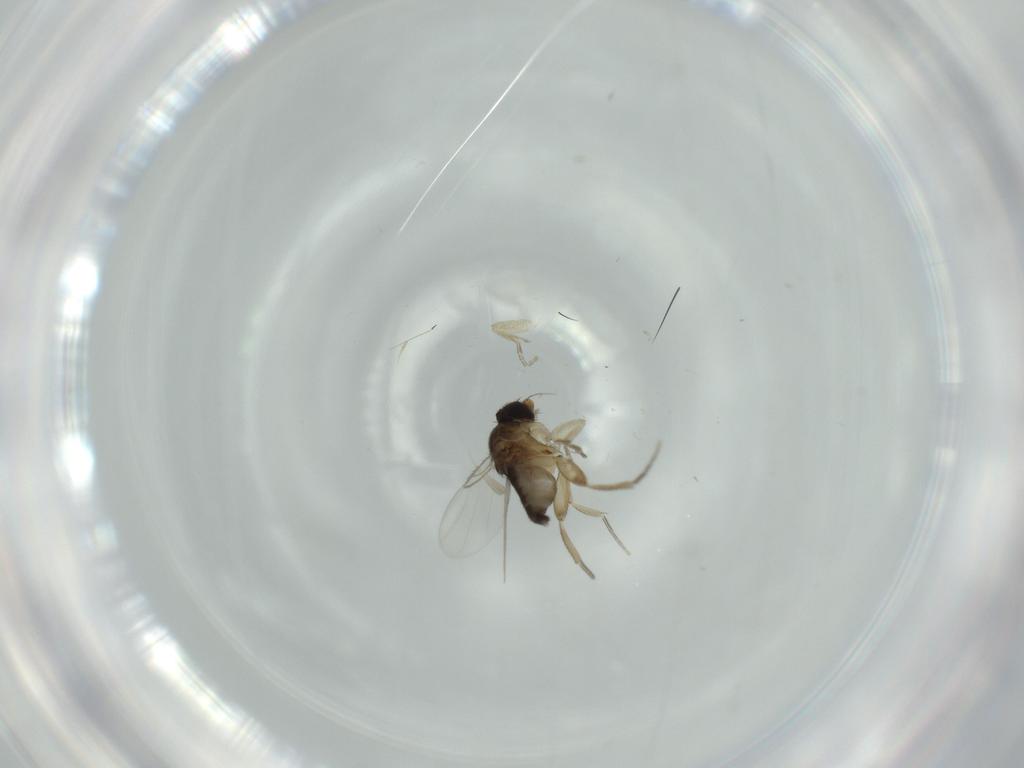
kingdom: Animalia
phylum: Arthropoda
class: Insecta
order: Diptera
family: Phoridae
